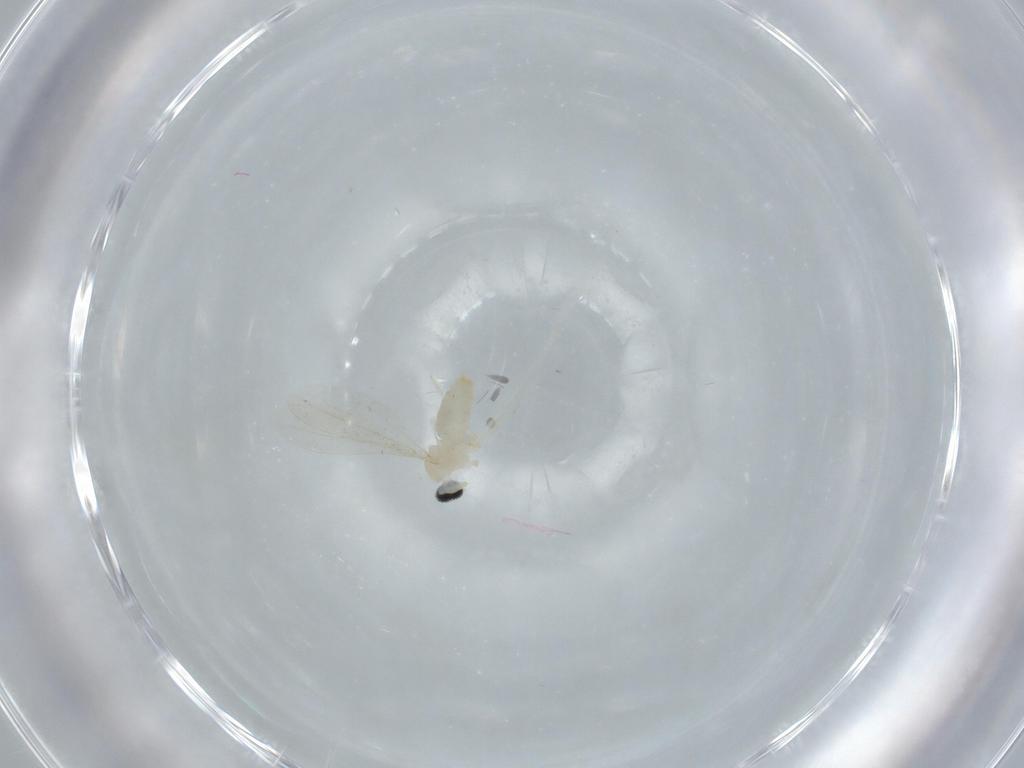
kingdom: Animalia
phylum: Arthropoda
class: Insecta
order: Diptera
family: Cecidomyiidae
